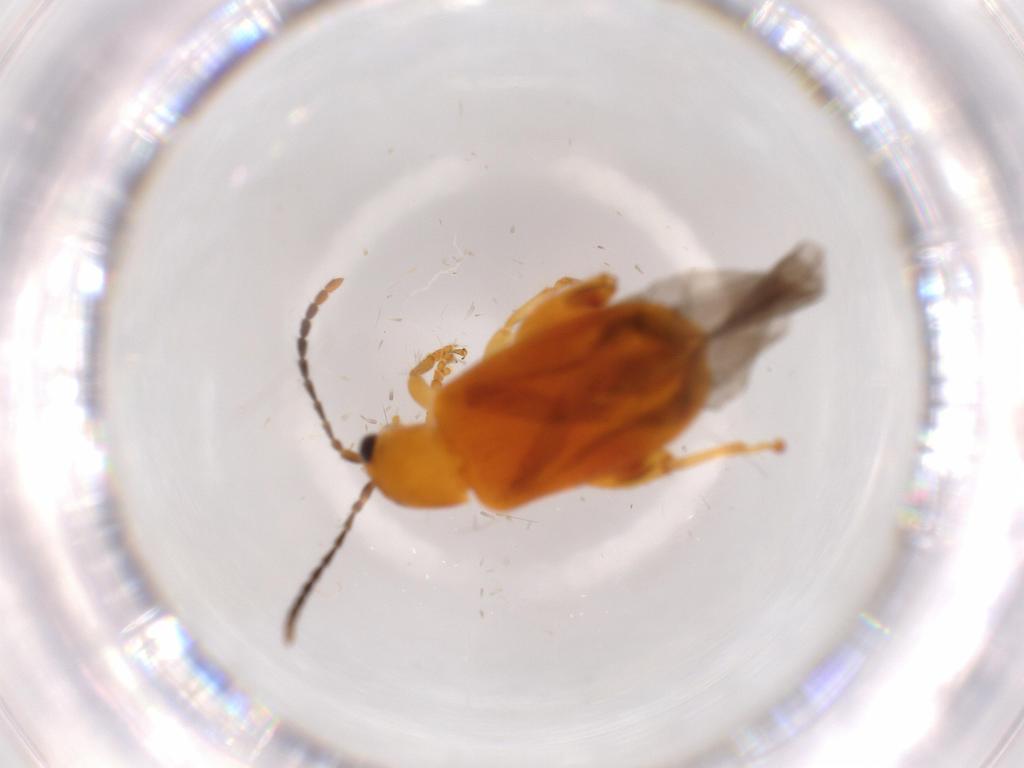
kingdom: Animalia
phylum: Arthropoda
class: Insecta
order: Coleoptera
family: Chrysomelidae
